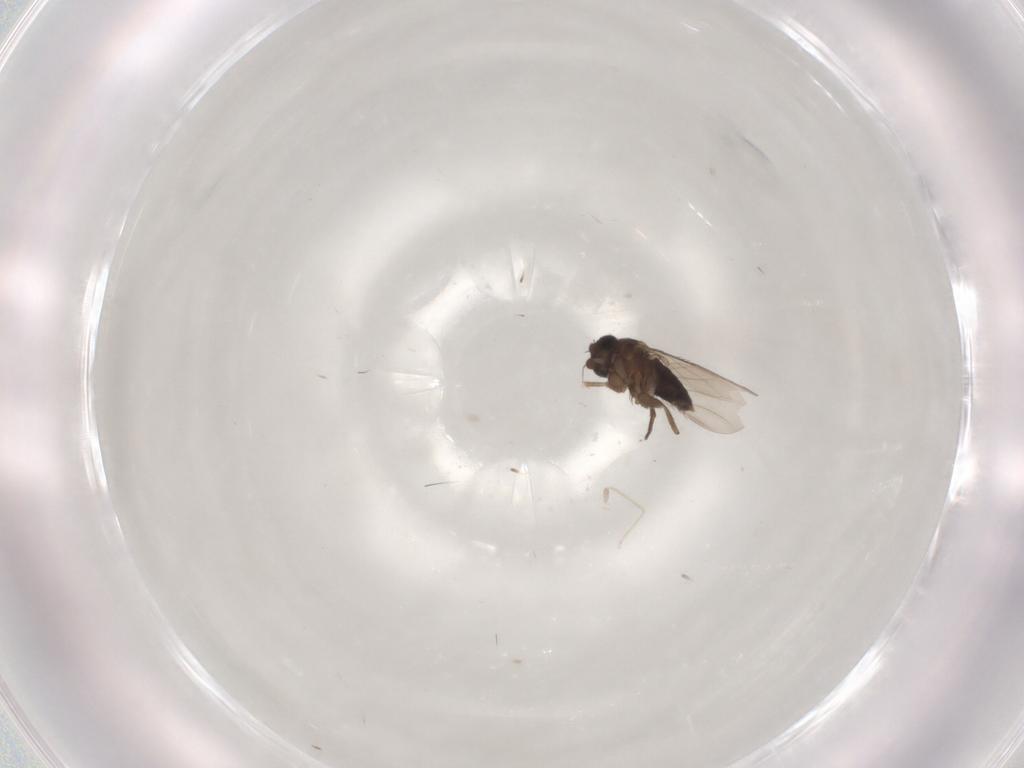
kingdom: Animalia
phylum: Arthropoda
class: Insecta
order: Diptera
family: Phoridae
